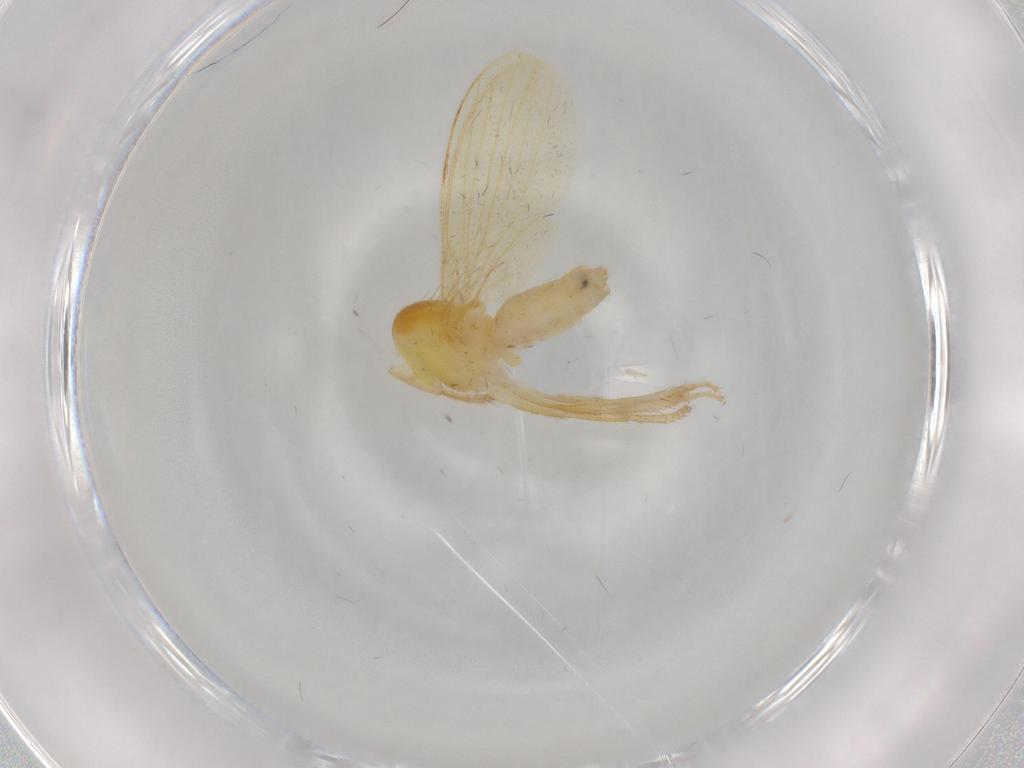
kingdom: Animalia
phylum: Arthropoda
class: Insecta
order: Diptera
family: Periscelididae
